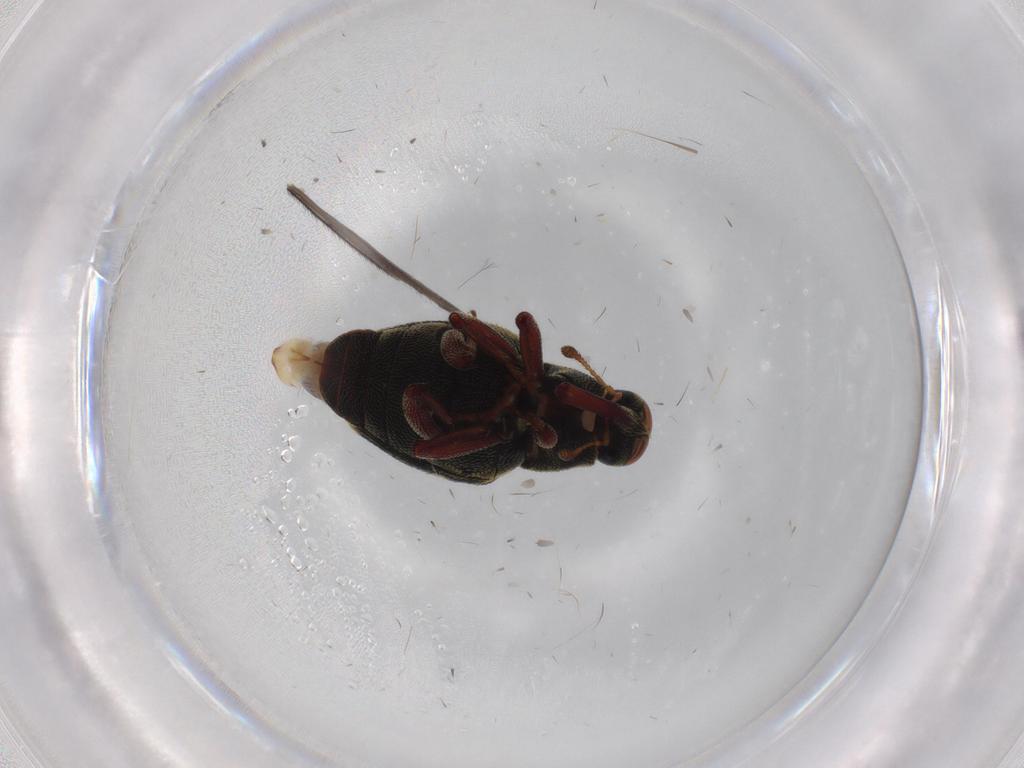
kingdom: Animalia
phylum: Arthropoda
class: Insecta
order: Coleoptera
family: Curculionidae
